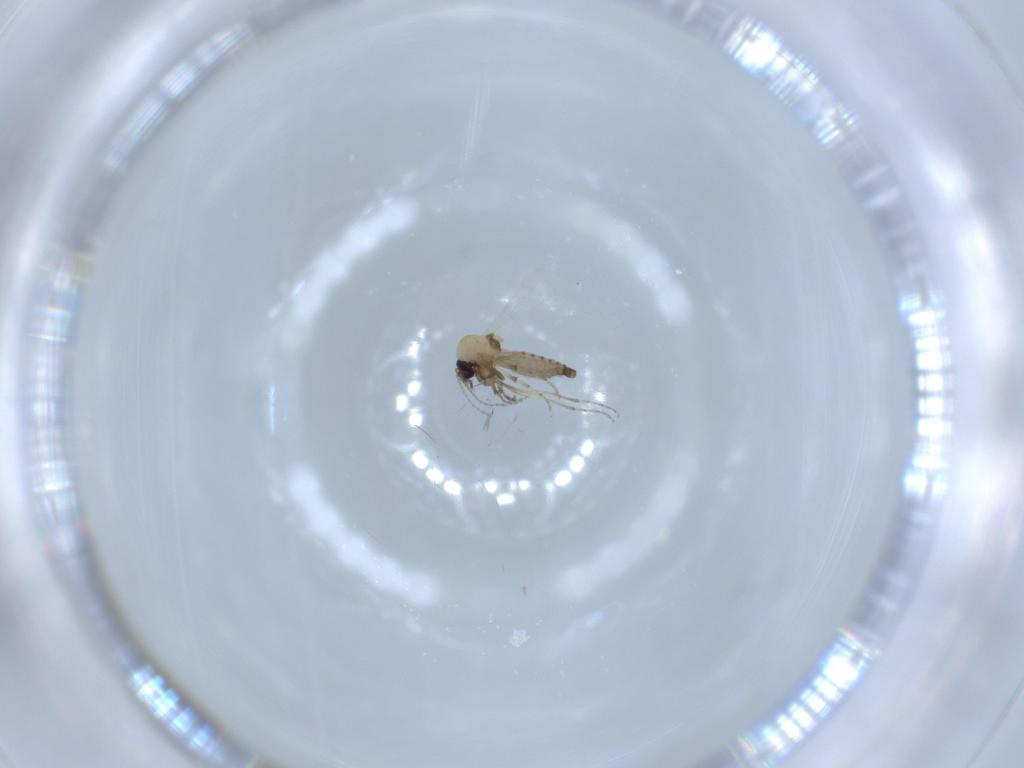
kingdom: Animalia
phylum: Arthropoda
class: Insecta
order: Diptera
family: Ceratopogonidae
